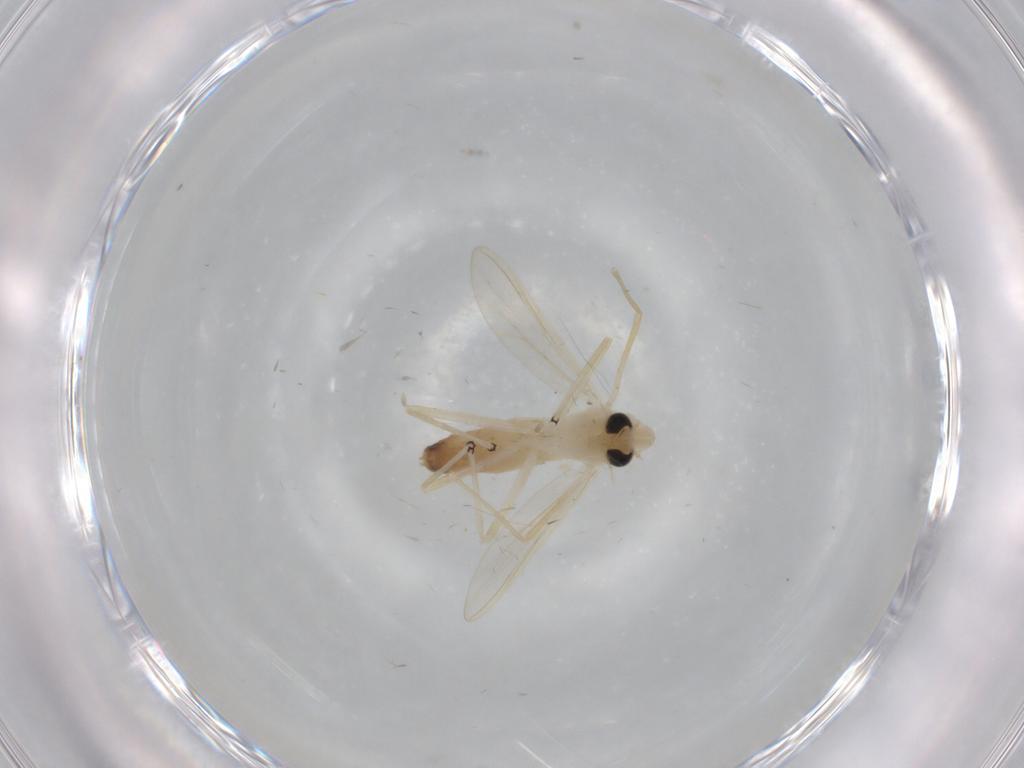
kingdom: Animalia
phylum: Arthropoda
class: Insecta
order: Diptera
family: Chironomidae
